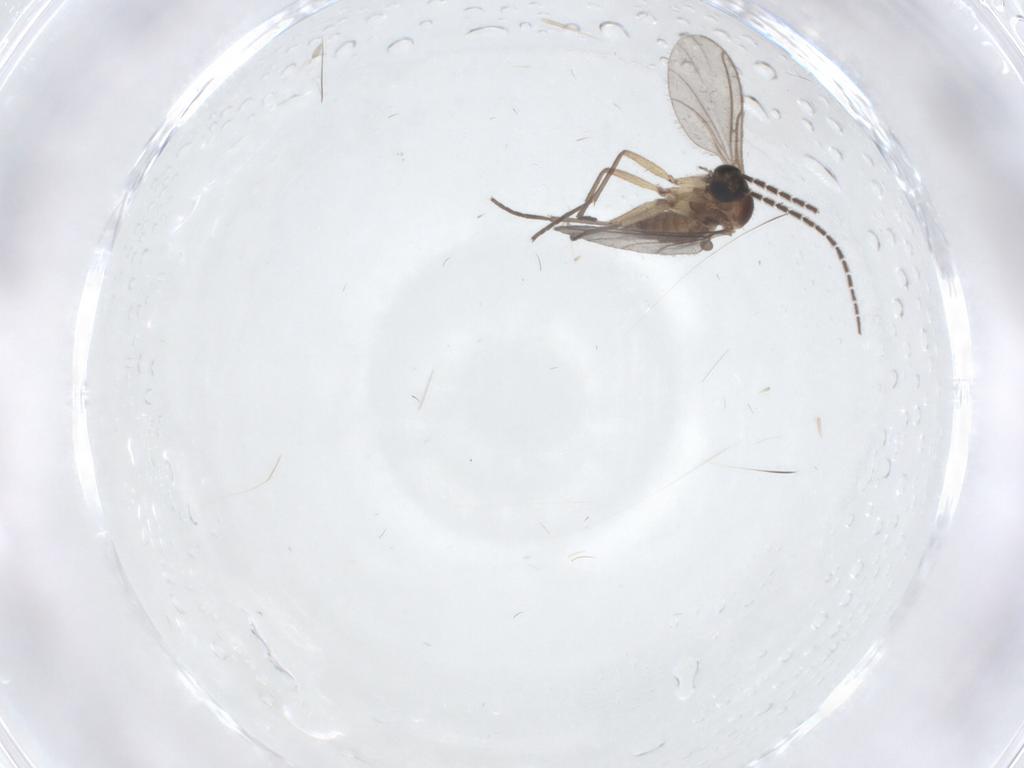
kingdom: Animalia
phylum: Arthropoda
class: Insecta
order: Diptera
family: Sciaridae
